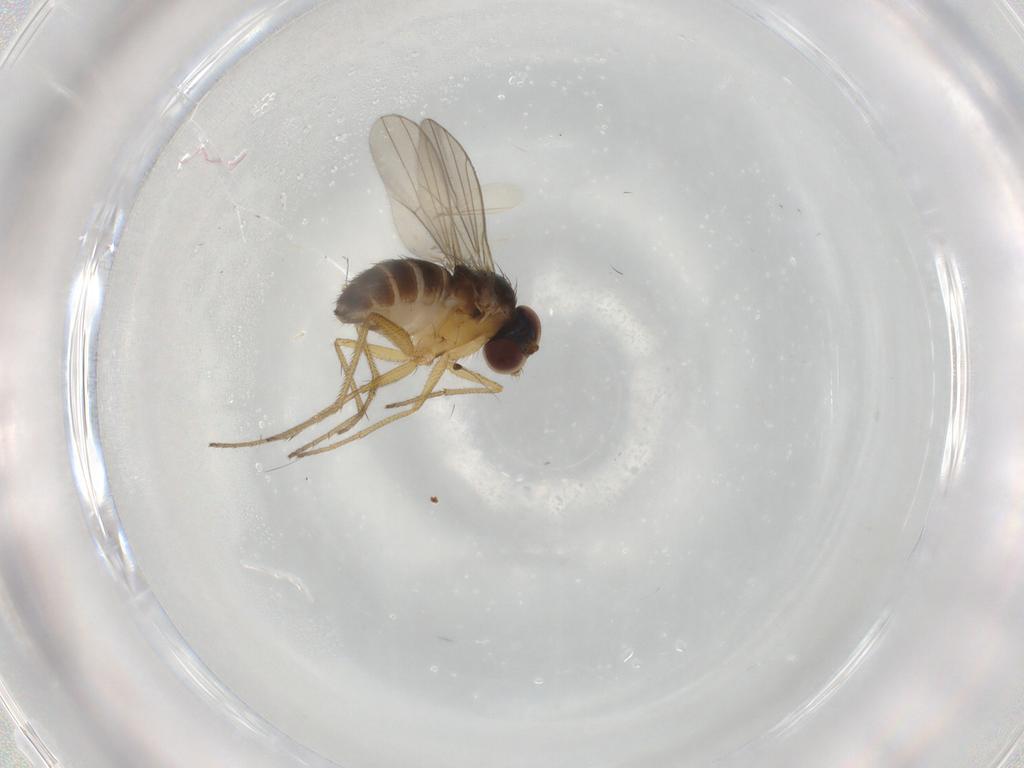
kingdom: Animalia
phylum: Arthropoda
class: Insecta
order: Diptera
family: Dolichopodidae
